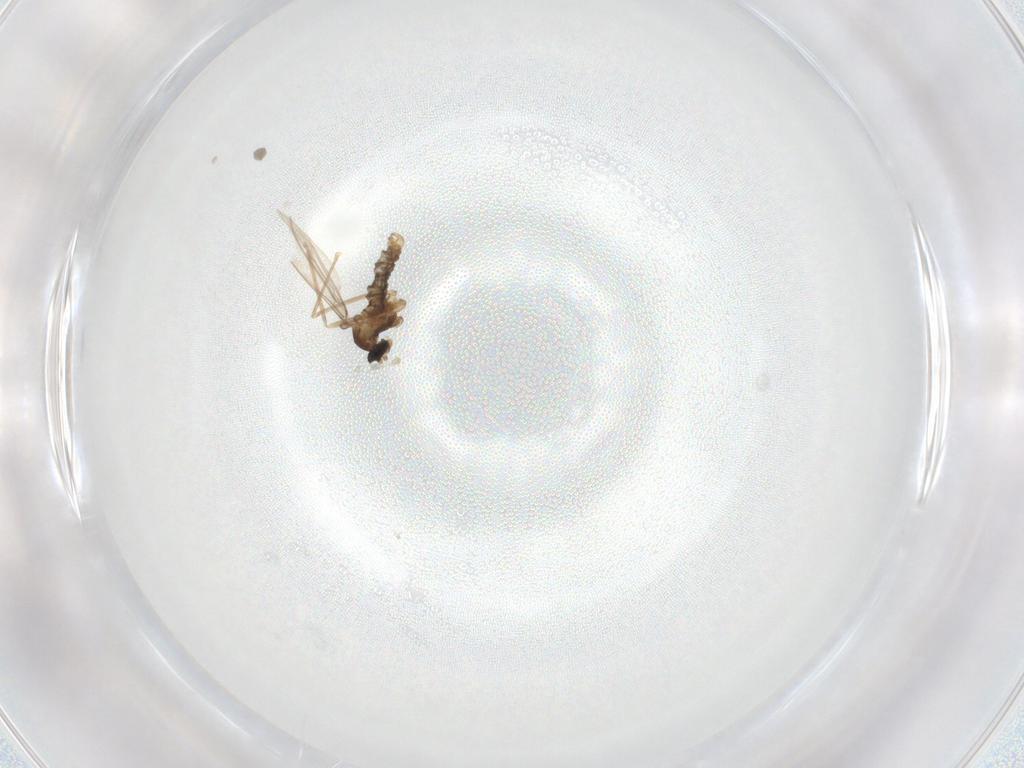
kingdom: Animalia
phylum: Arthropoda
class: Insecta
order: Diptera
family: Cecidomyiidae
